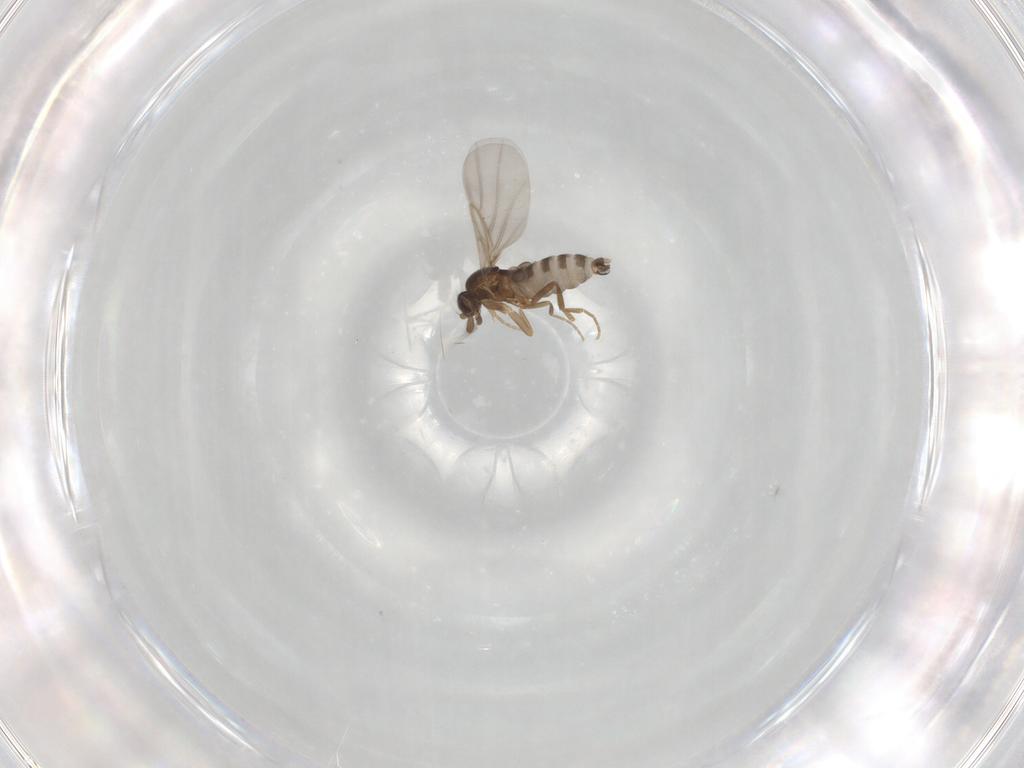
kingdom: Animalia
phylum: Arthropoda
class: Insecta
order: Diptera
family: Phoridae
